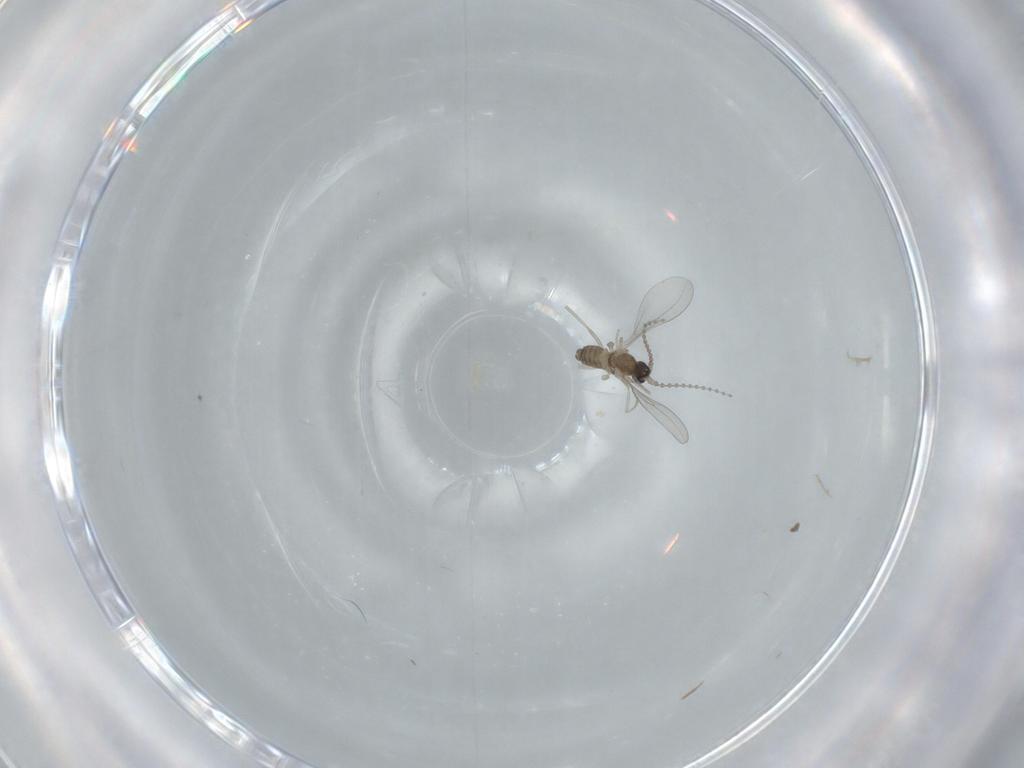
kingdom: Animalia
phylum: Arthropoda
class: Insecta
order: Diptera
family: Cecidomyiidae
